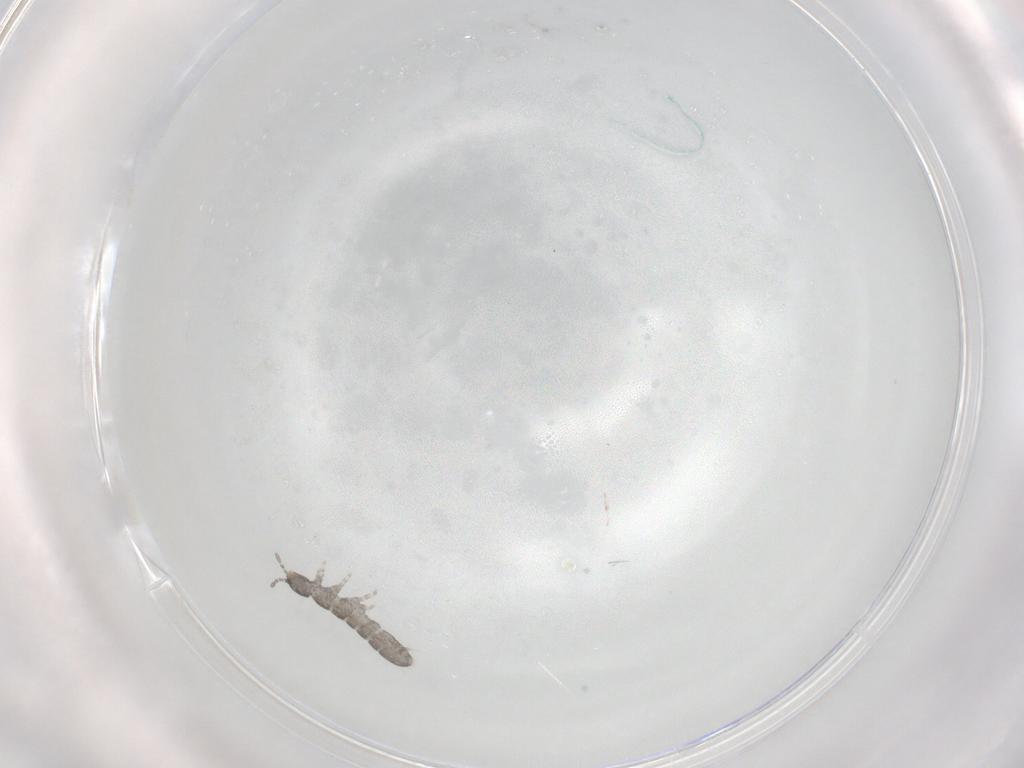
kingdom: Animalia
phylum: Arthropoda
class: Collembola
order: Entomobryomorpha
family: Isotomidae
